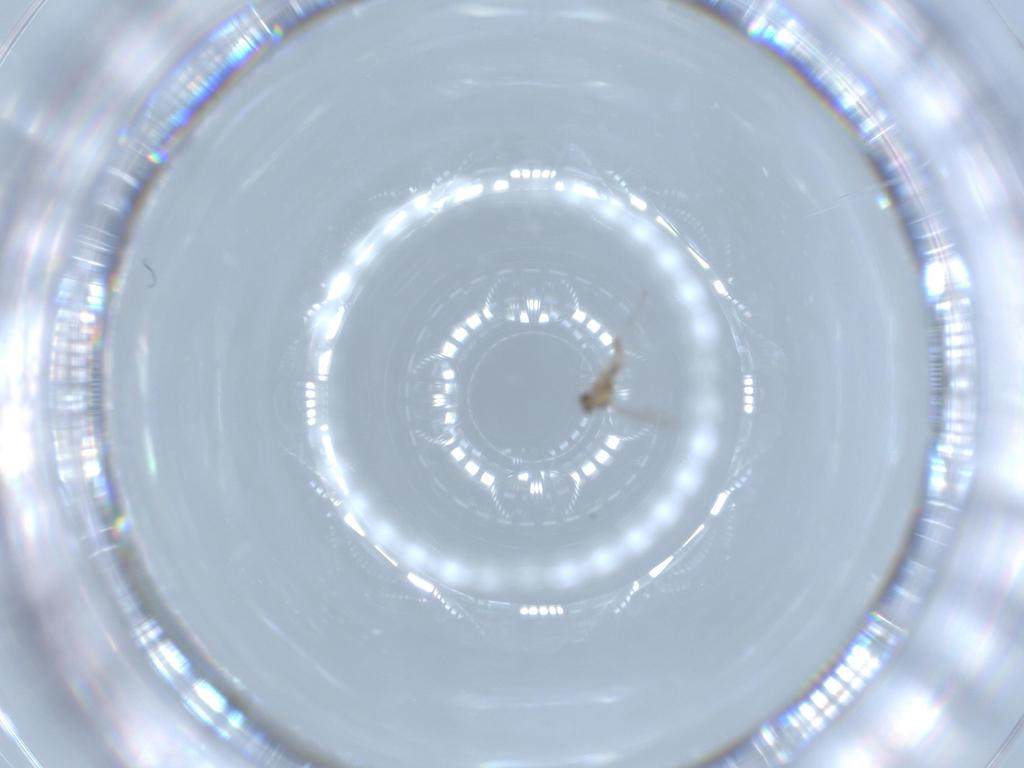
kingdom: Animalia
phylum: Arthropoda
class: Insecta
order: Diptera
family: Cecidomyiidae
